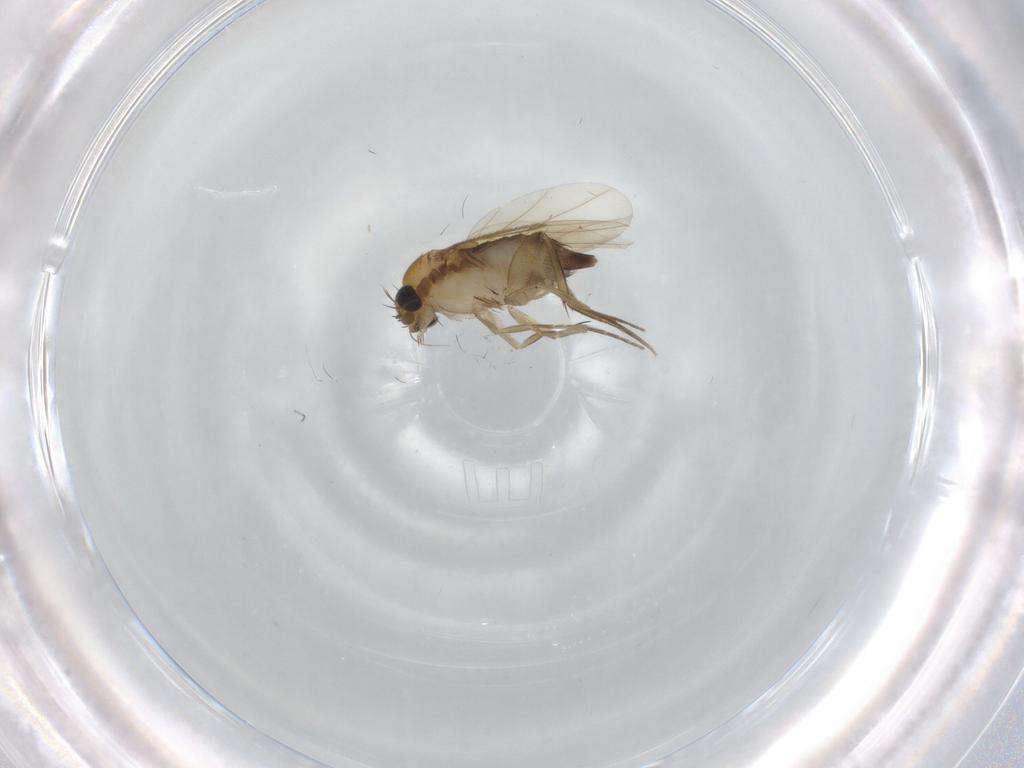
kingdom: Animalia
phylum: Arthropoda
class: Insecta
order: Diptera
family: Phoridae
